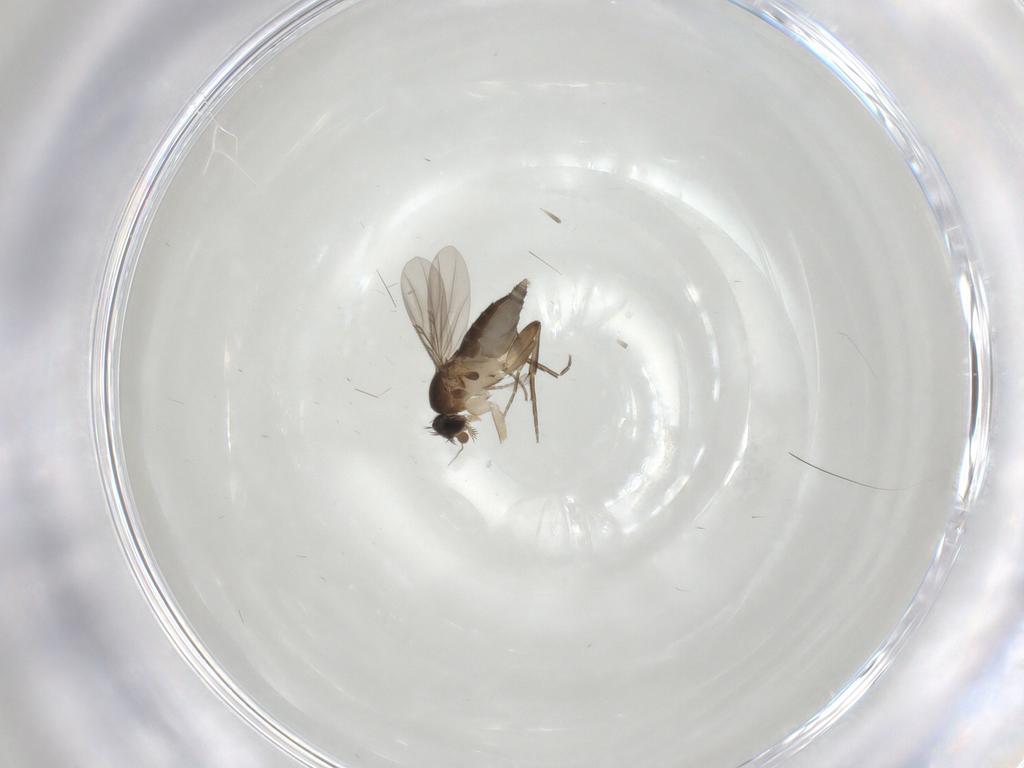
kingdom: Animalia
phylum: Arthropoda
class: Insecta
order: Diptera
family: Phoridae
